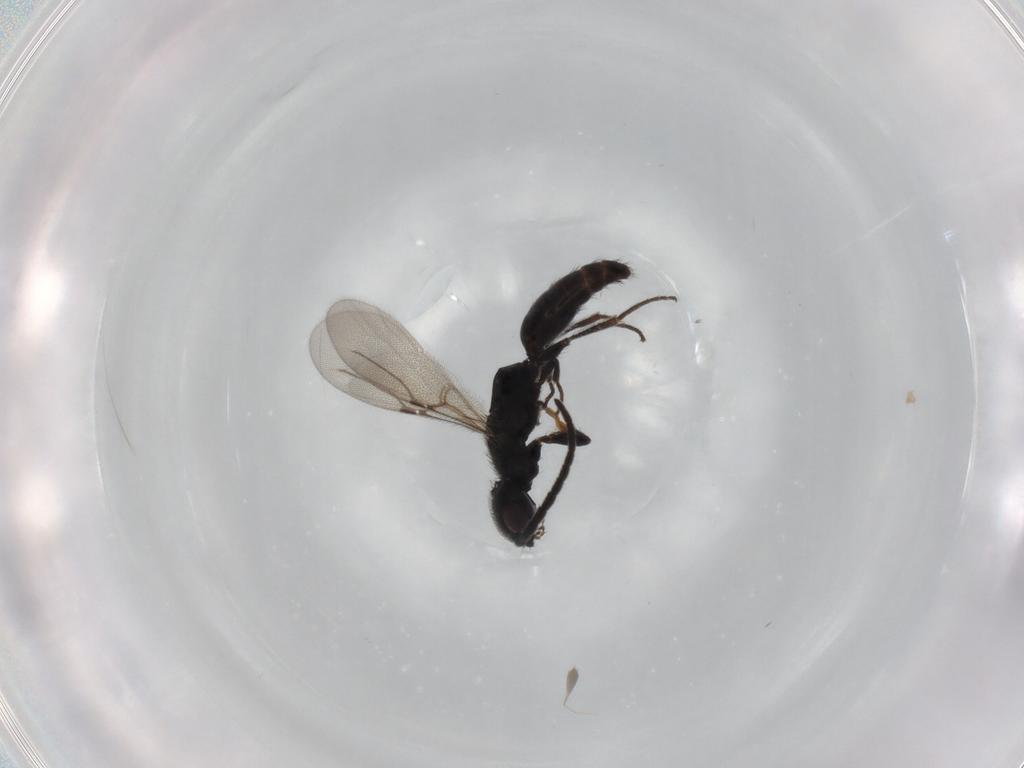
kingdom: Animalia
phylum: Arthropoda
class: Insecta
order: Hymenoptera
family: Bethylidae
